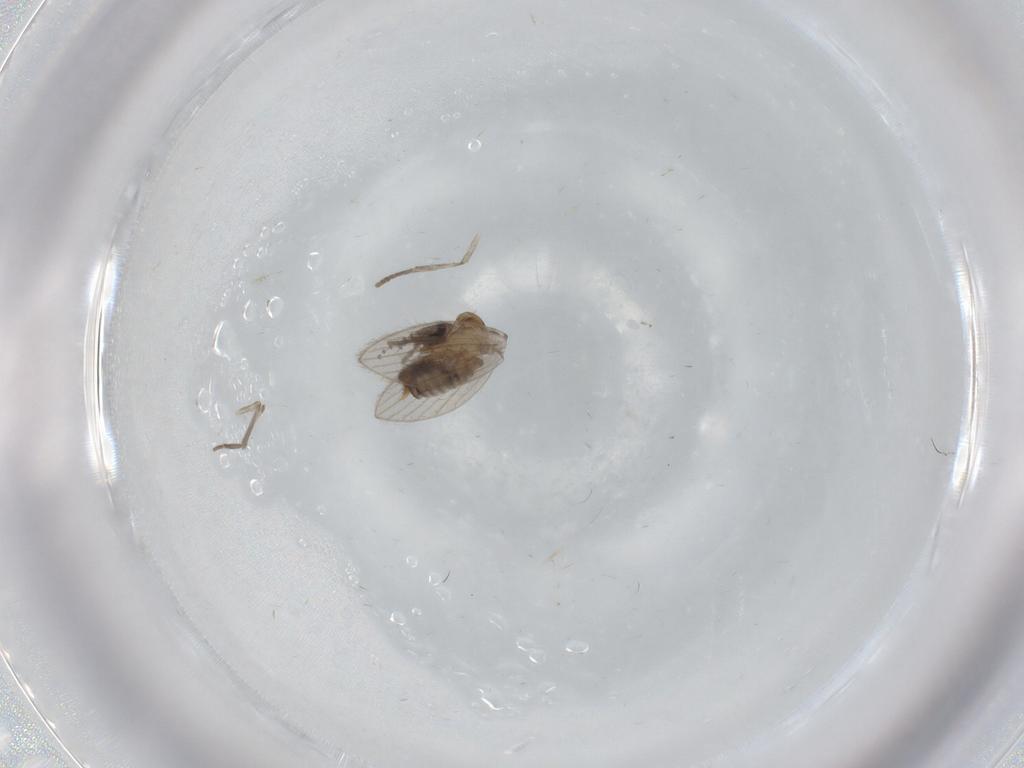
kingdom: Animalia
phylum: Arthropoda
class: Insecta
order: Diptera
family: Psychodidae
